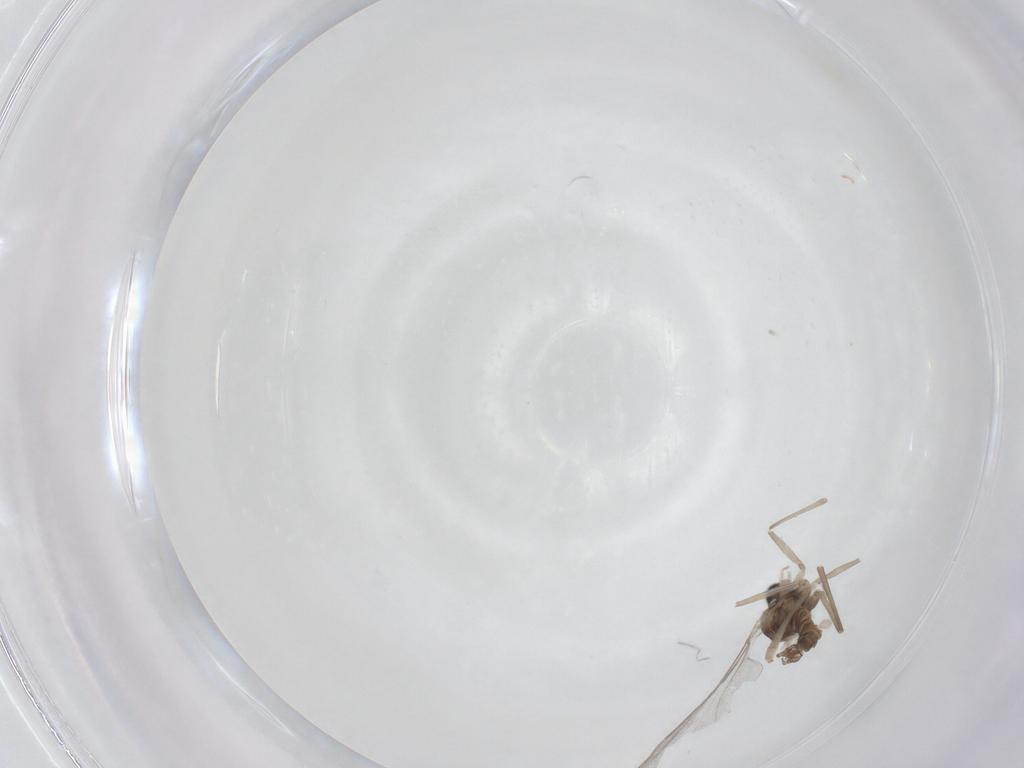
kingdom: Animalia
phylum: Arthropoda
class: Insecta
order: Diptera
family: Cecidomyiidae
